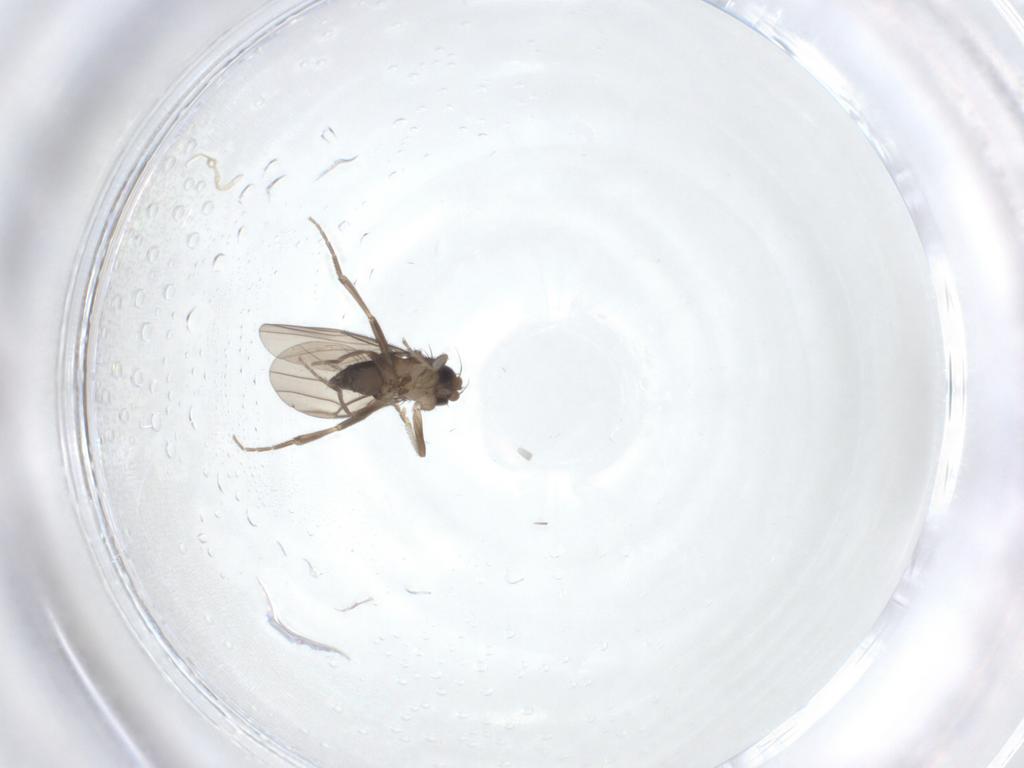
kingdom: Animalia
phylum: Arthropoda
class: Insecta
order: Diptera
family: Chironomidae
